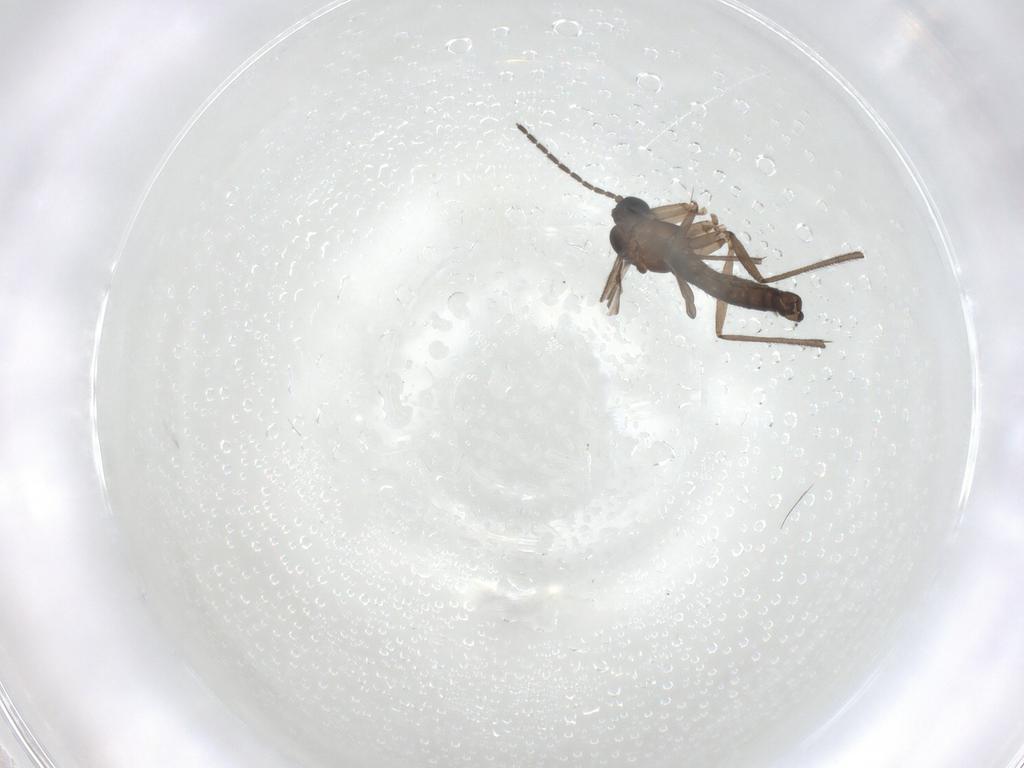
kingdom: Animalia
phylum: Arthropoda
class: Insecta
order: Diptera
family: Sciaridae
